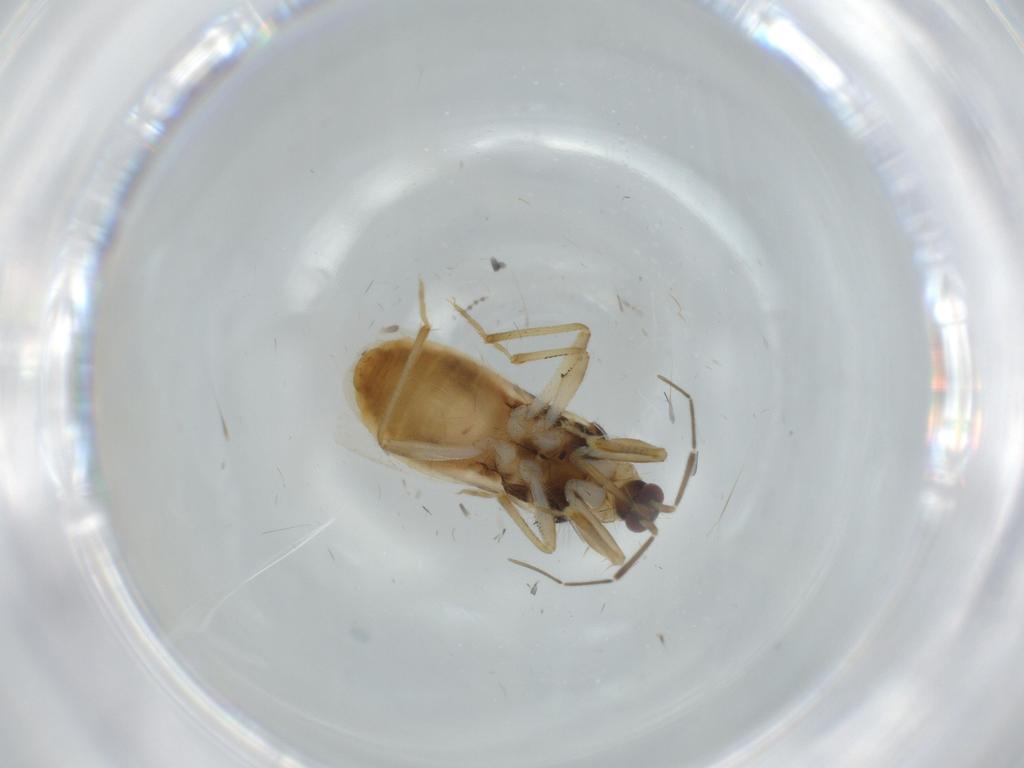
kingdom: Animalia
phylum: Arthropoda
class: Insecta
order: Hemiptera
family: Nabidae
